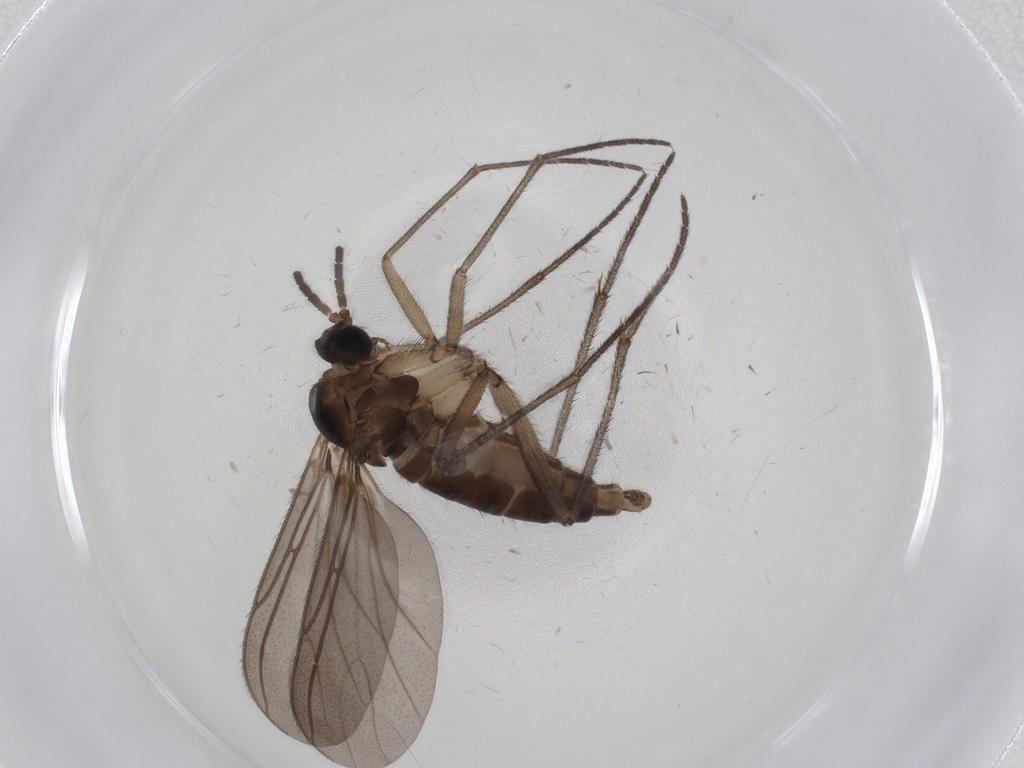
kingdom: Animalia
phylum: Arthropoda
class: Insecta
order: Diptera
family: Sciaridae
